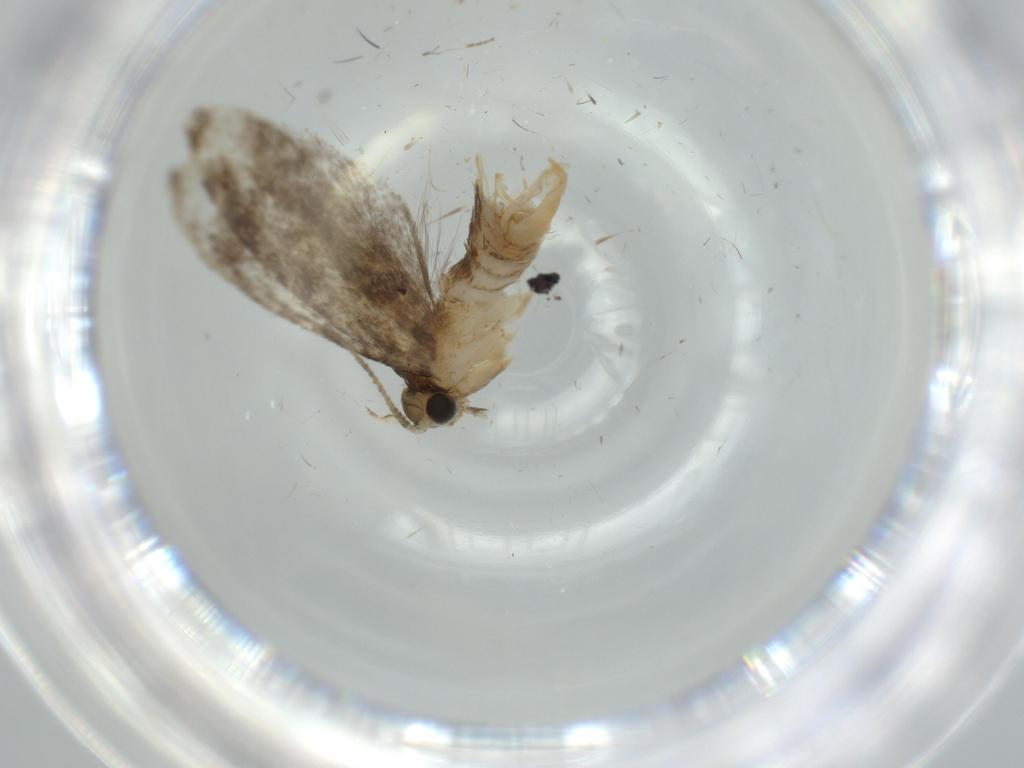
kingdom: Animalia
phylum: Arthropoda
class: Insecta
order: Lepidoptera
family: Tineidae
